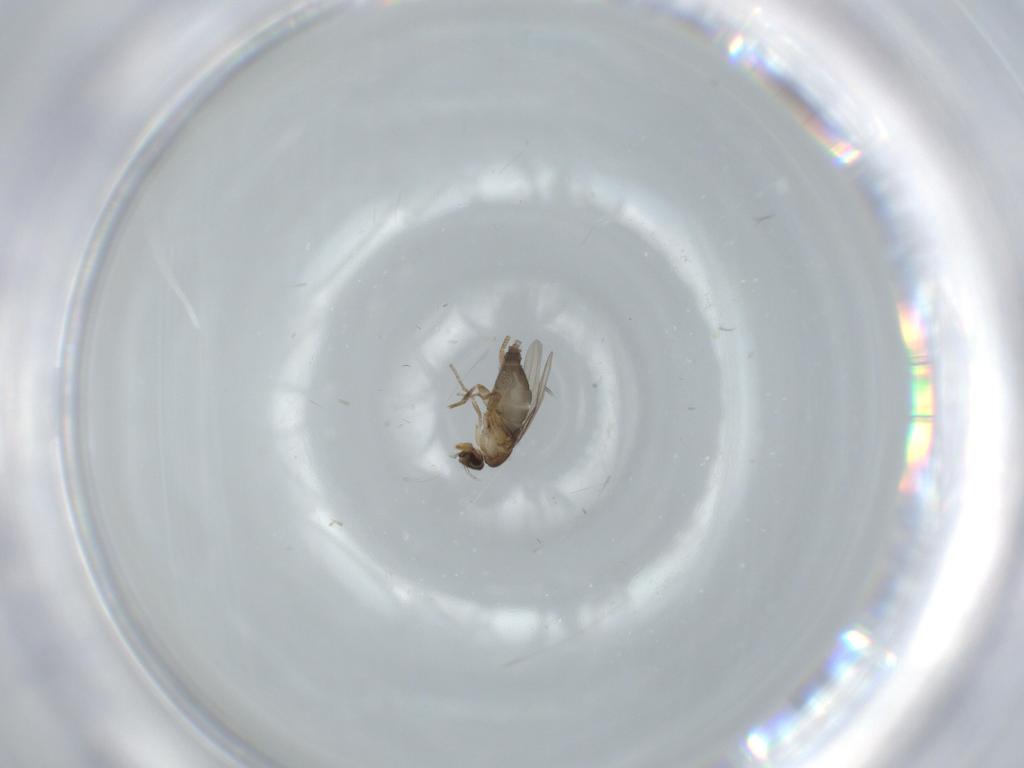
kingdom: Animalia
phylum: Arthropoda
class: Insecta
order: Diptera
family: Phoridae
